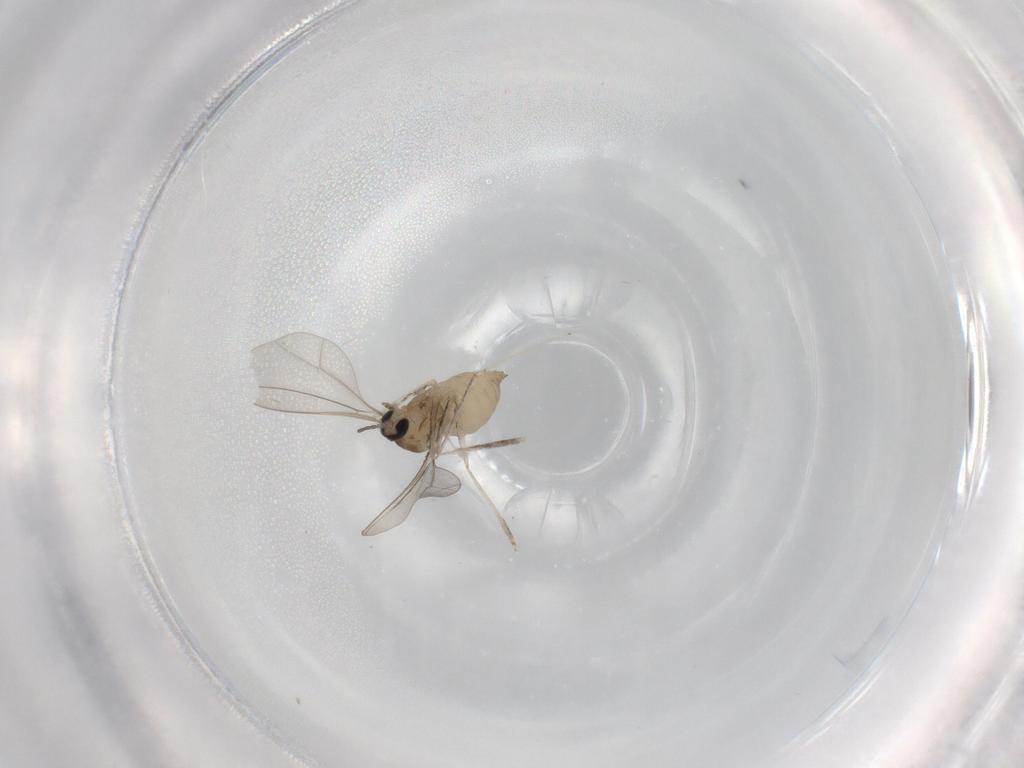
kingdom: Animalia
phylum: Arthropoda
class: Insecta
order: Diptera
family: Cecidomyiidae
